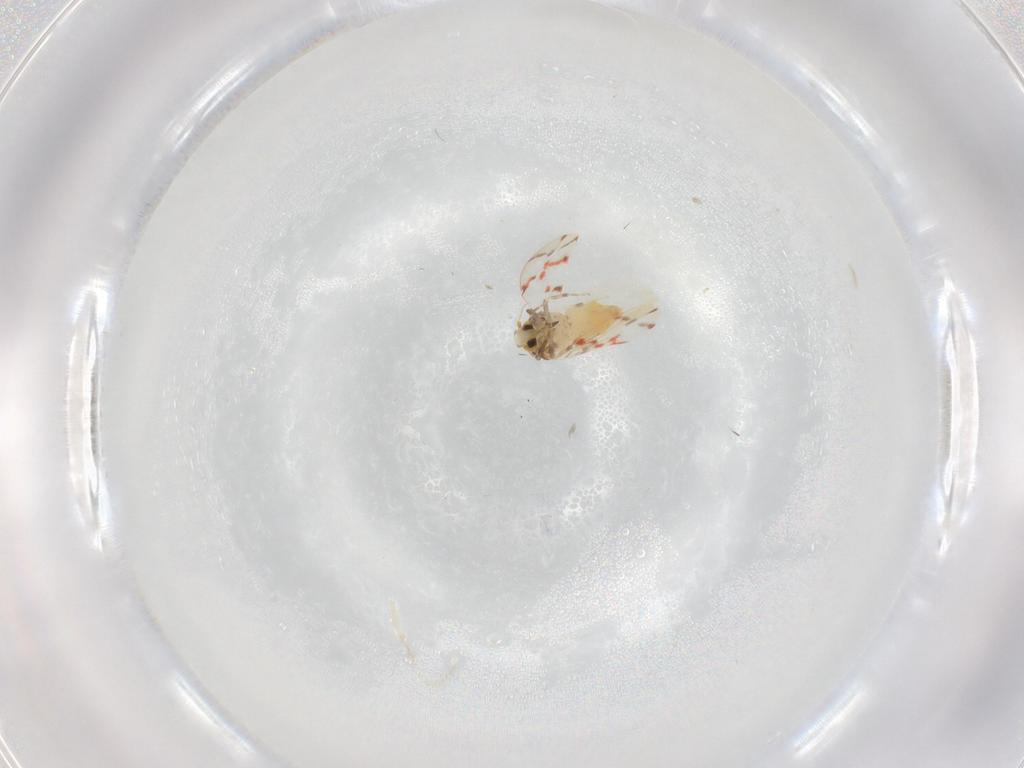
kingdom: Animalia
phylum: Arthropoda
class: Insecta
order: Hemiptera
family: Aleyrodidae
